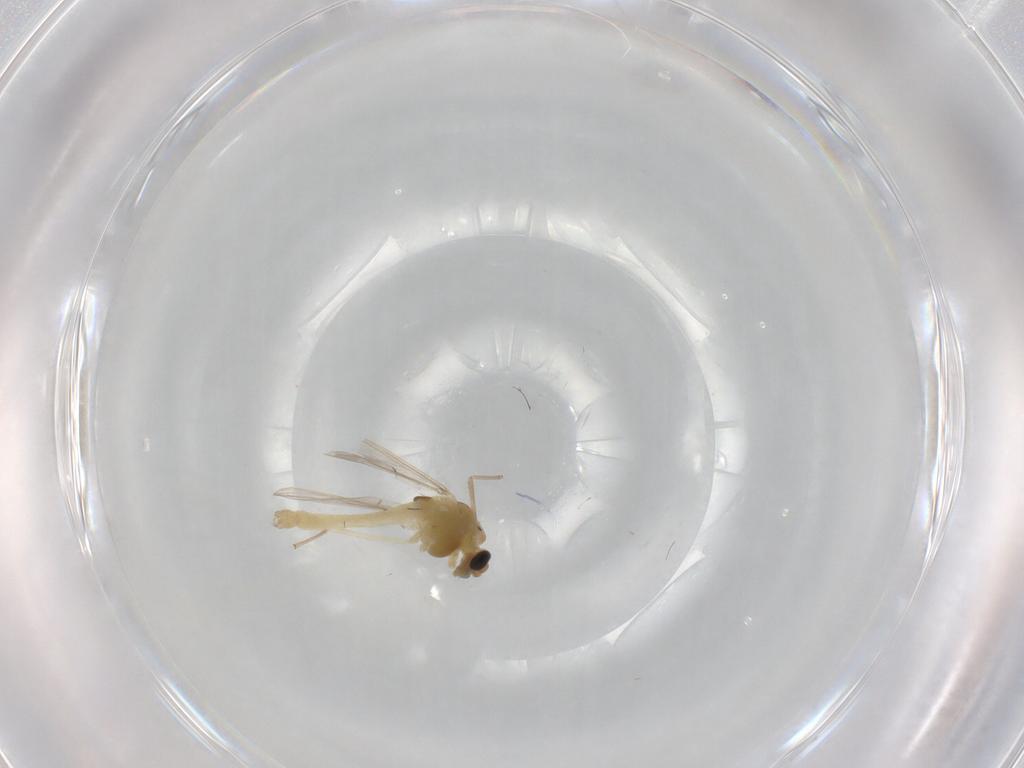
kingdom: Animalia
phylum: Arthropoda
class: Insecta
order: Diptera
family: Chironomidae
